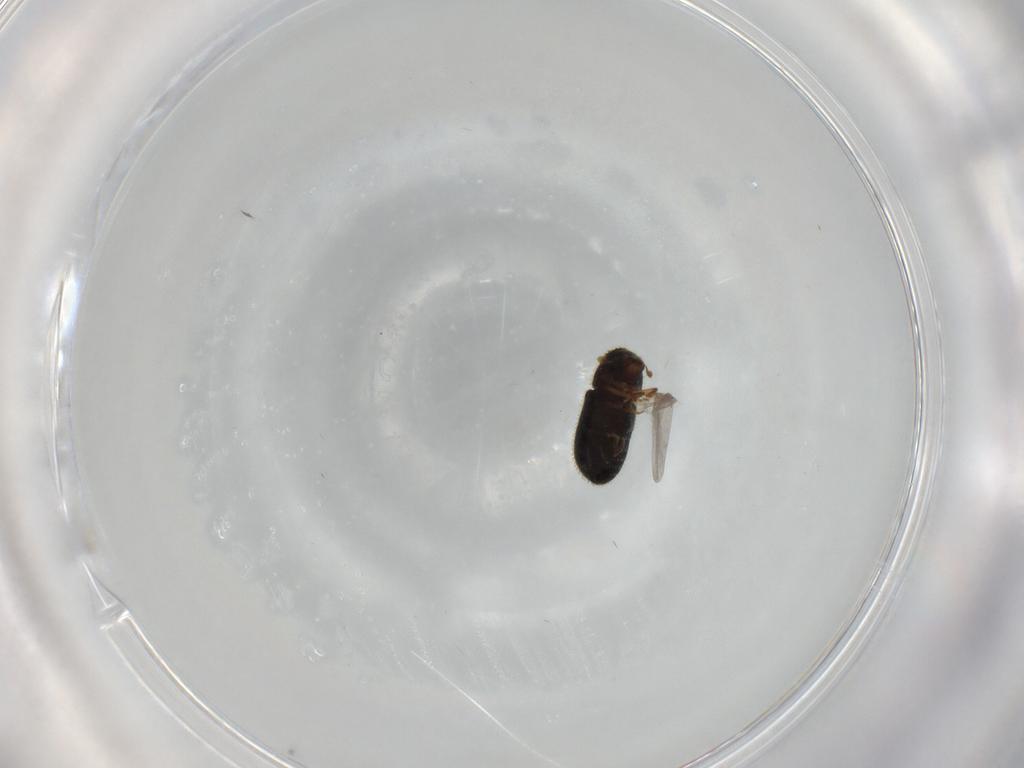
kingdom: Animalia
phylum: Arthropoda
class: Insecta
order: Coleoptera
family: Curculionidae
